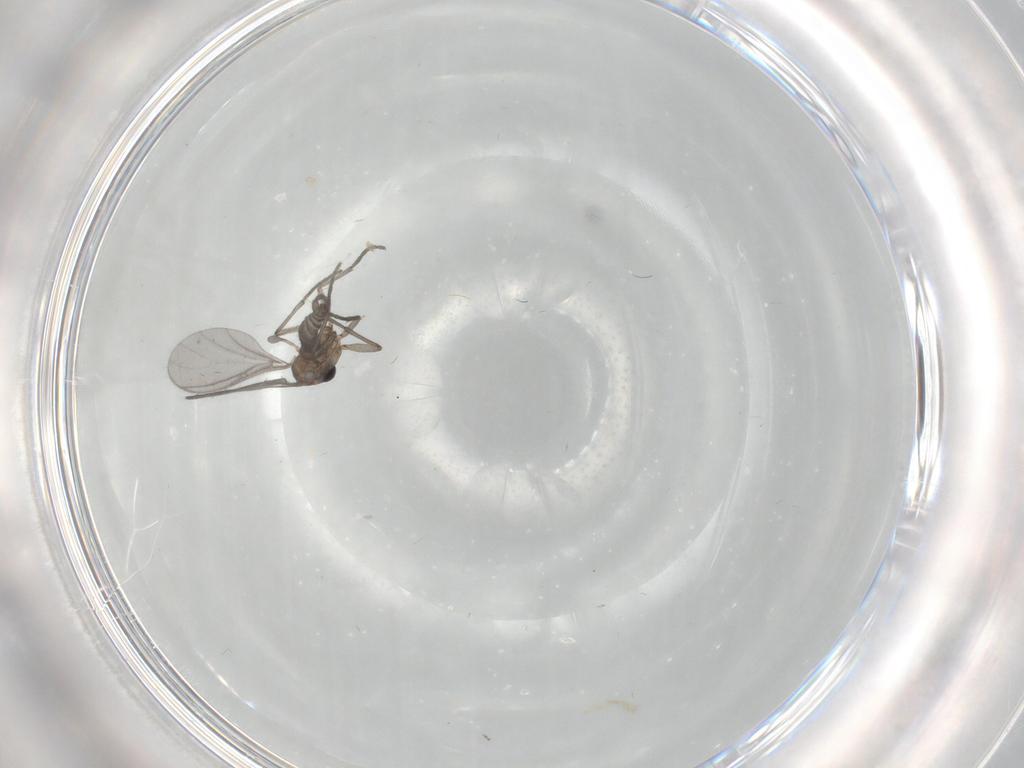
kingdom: Animalia
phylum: Arthropoda
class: Insecta
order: Diptera
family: Sciaridae
